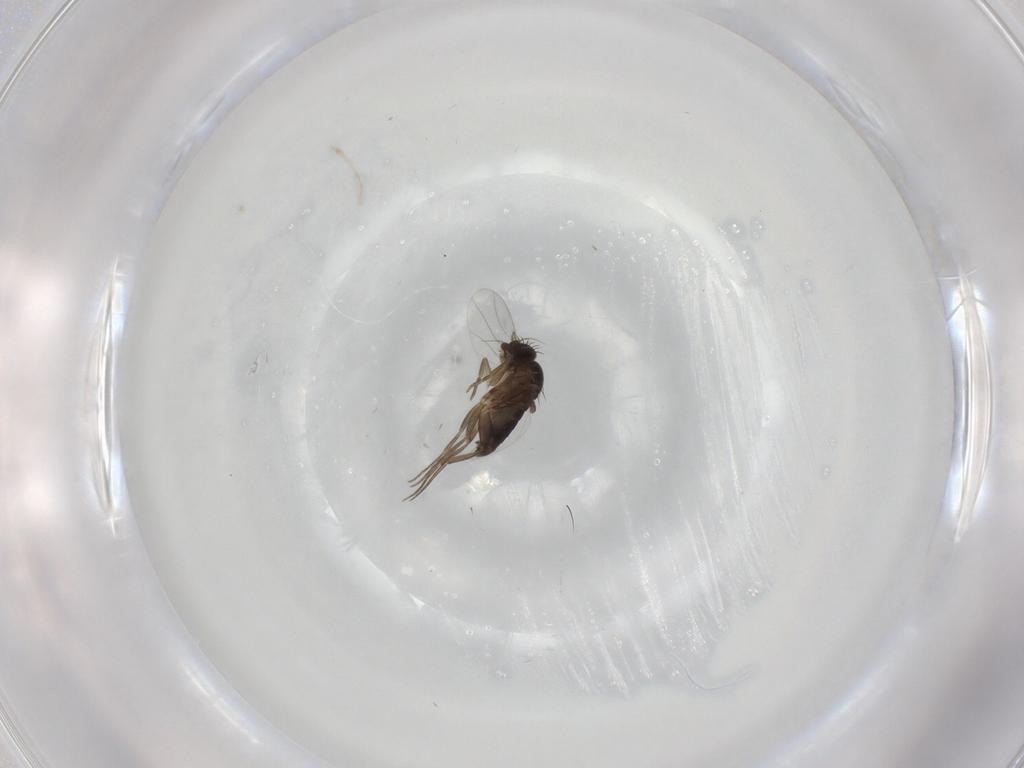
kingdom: Animalia
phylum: Arthropoda
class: Insecta
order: Diptera
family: Phoridae
